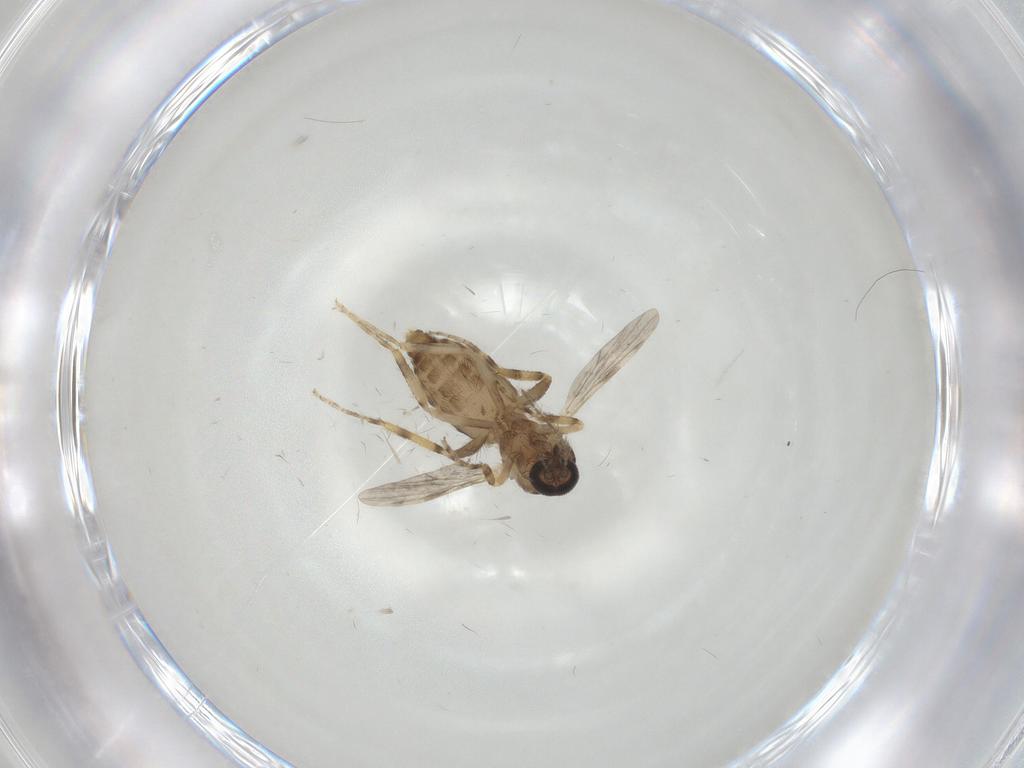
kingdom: Animalia
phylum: Arthropoda
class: Insecta
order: Diptera
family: Ceratopogonidae
